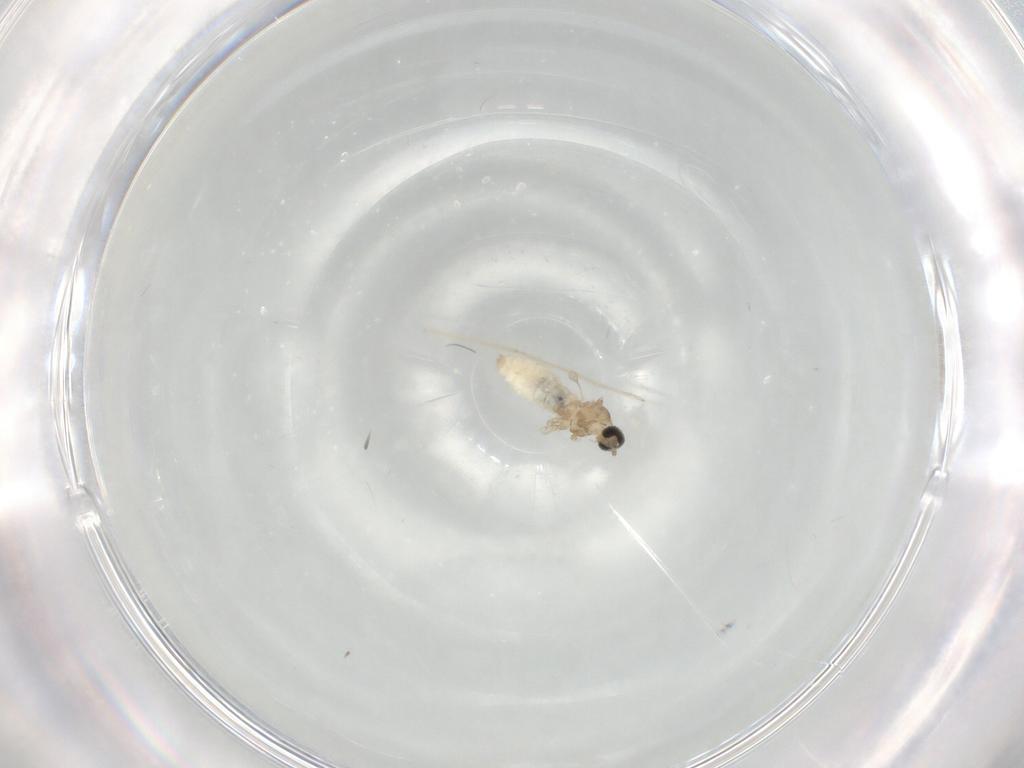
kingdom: Animalia
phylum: Arthropoda
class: Insecta
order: Diptera
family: Cecidomyiidae
